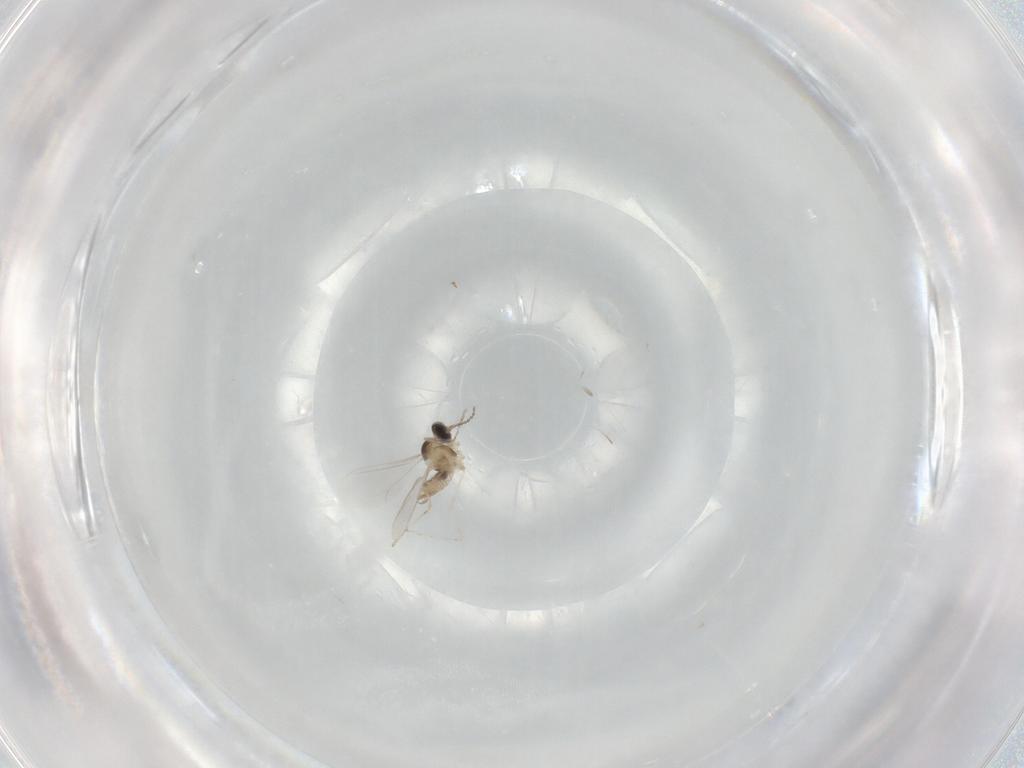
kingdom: Animalia
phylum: Arthropoda
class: Insecta
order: Diptera
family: Cecidomyiidae
